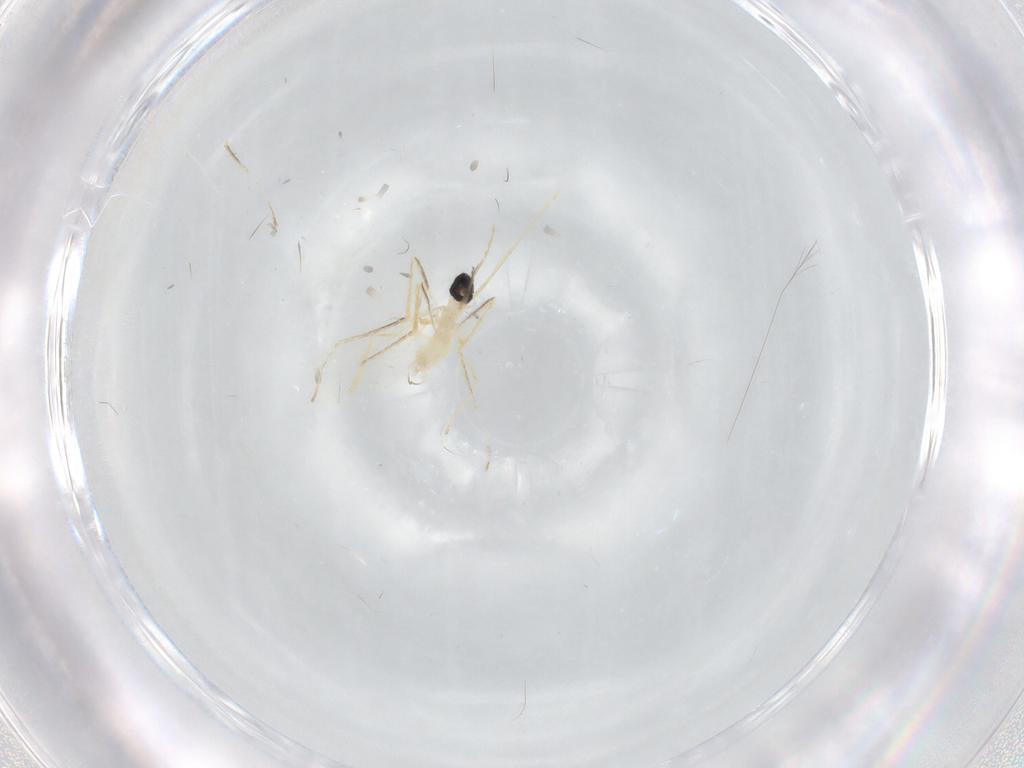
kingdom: Animalia
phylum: Arthropoda
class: Insecta
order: Diptera
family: Cecidomyiidae
